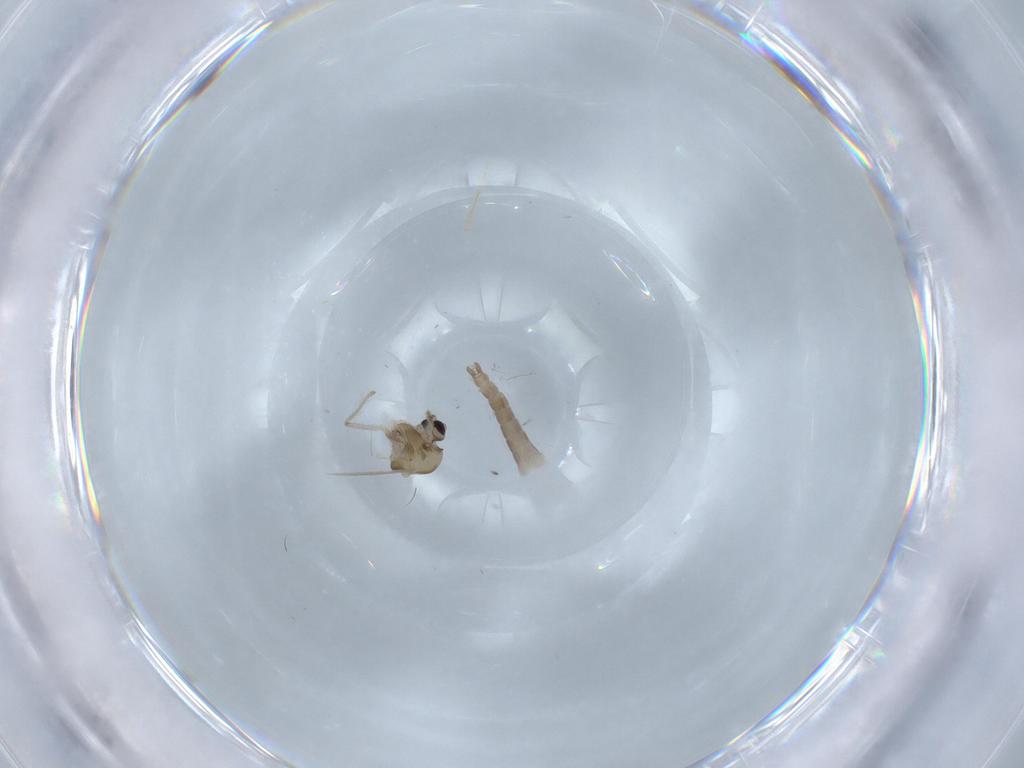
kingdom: Animalia
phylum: Arthropoda
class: Insecta
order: Diptera
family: Chironomidae
